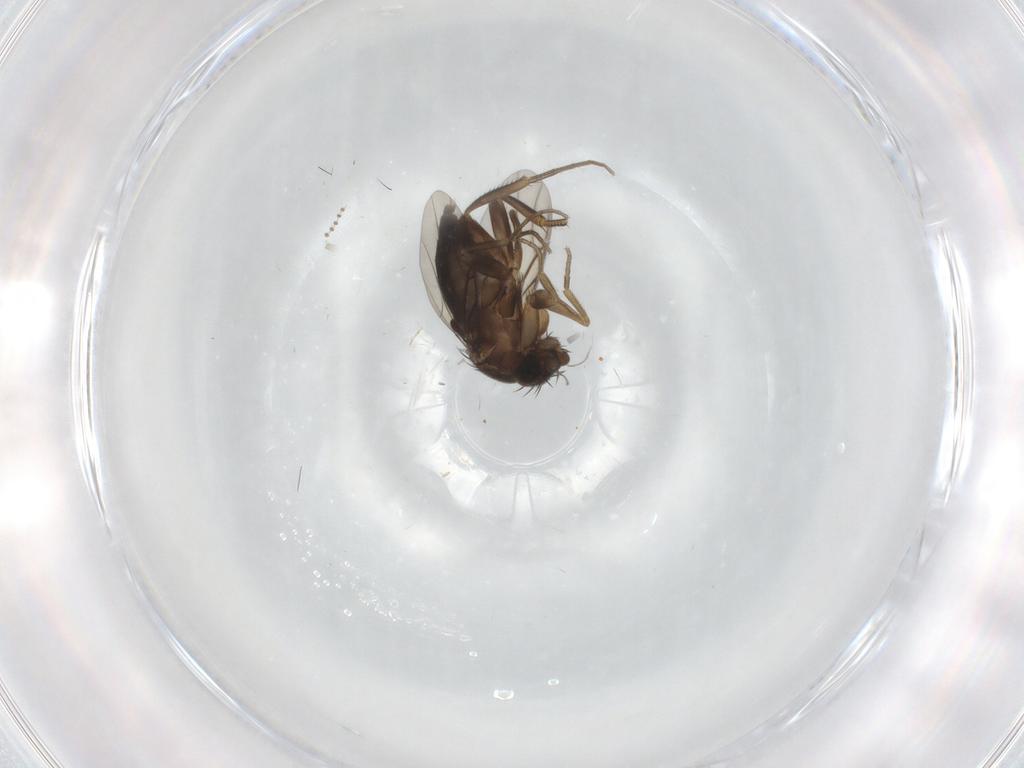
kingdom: Animalia
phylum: Arthropoda
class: Insecta
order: Diptera
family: Phoridae
